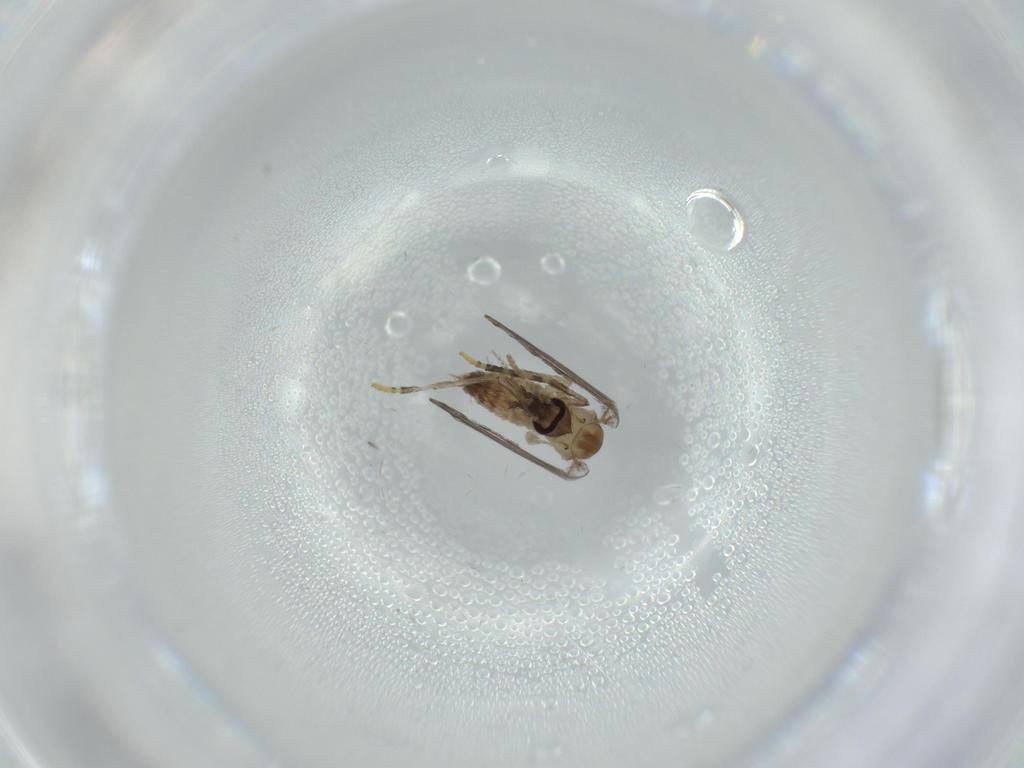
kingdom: Animalia
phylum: Arthropoda
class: Insecta
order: Diptera
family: Psychodidae
